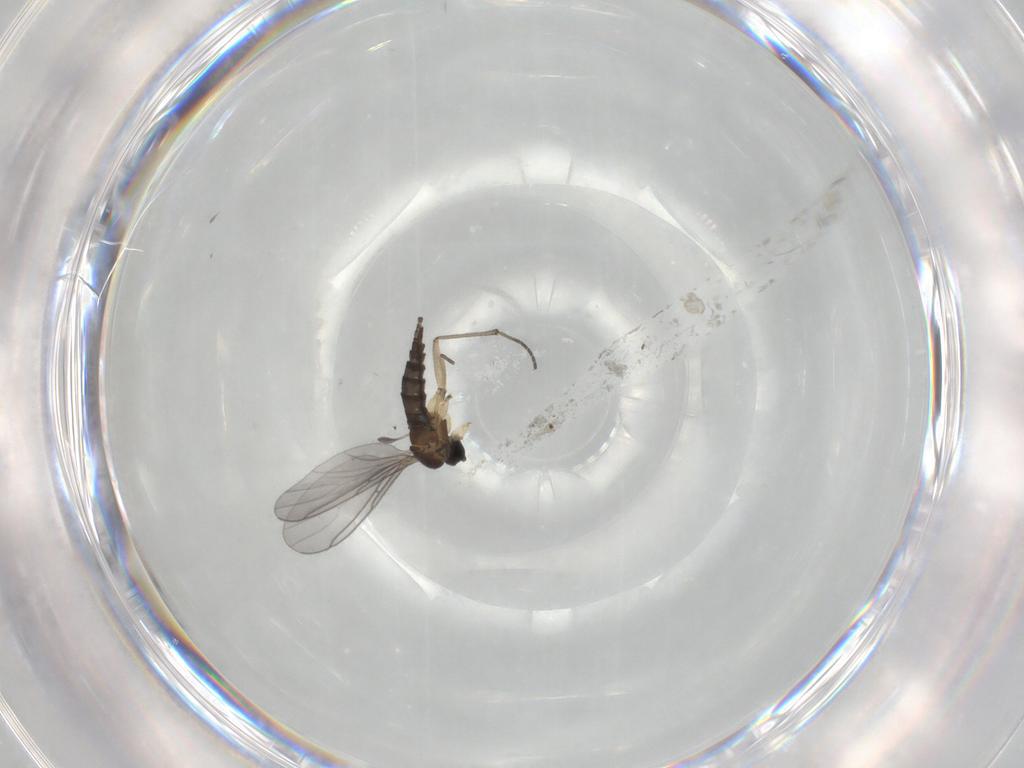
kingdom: Animalia
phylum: Arthropoda
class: Insecta
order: Diptera
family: Sciaridae
